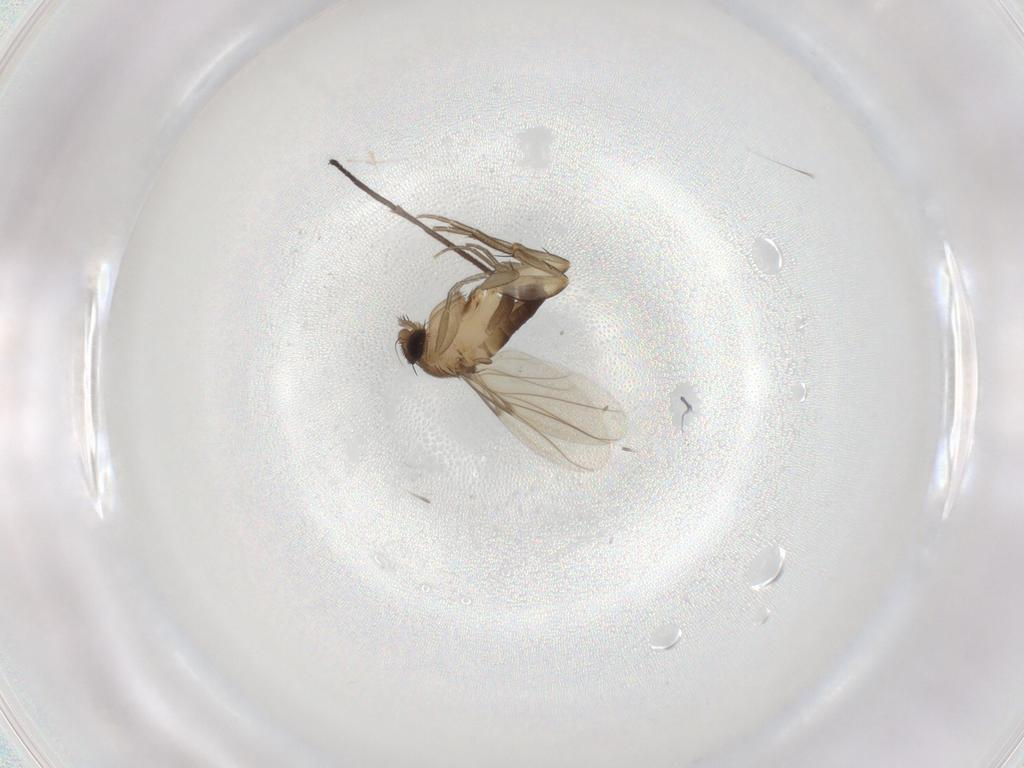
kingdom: Animalia
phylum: Arthropoda
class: Insecta
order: Diptera
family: Phoridae
